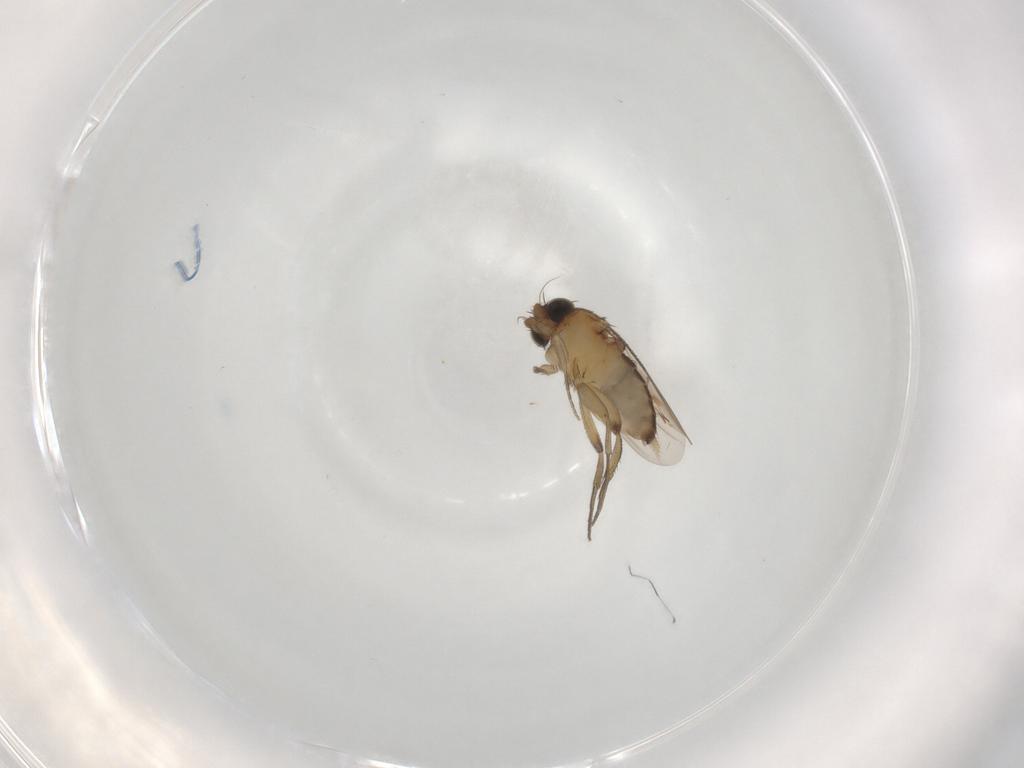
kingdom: Animalia
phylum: Arthropoda
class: Insecta
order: Diptera
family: Phoridae
